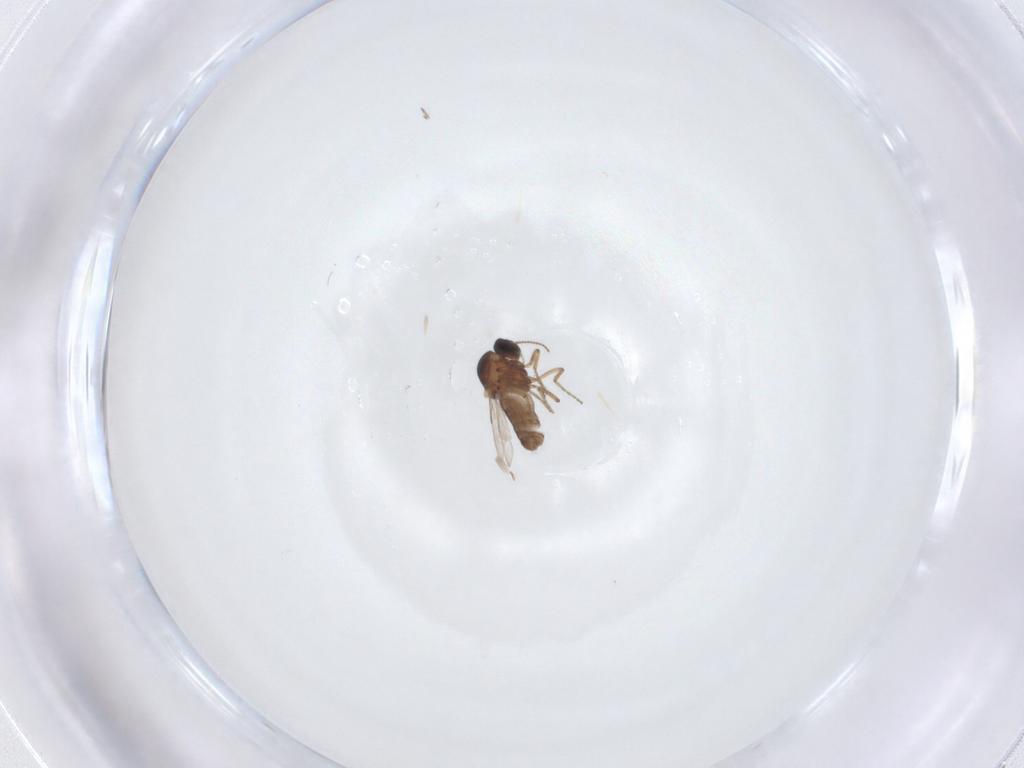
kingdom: Animalia
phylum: Arthropoda
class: Insecta
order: Diptera
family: Ceratopogonidae
